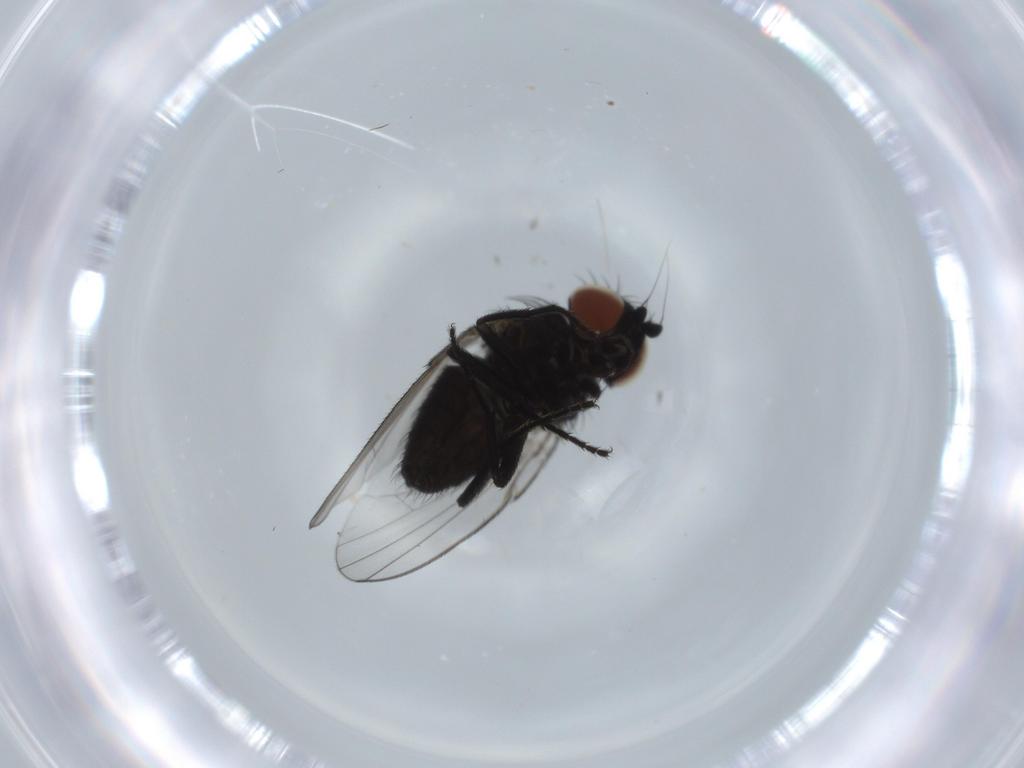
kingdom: Animalia
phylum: Arthropoda
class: Insecta
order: Diptera
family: Milichiidae
